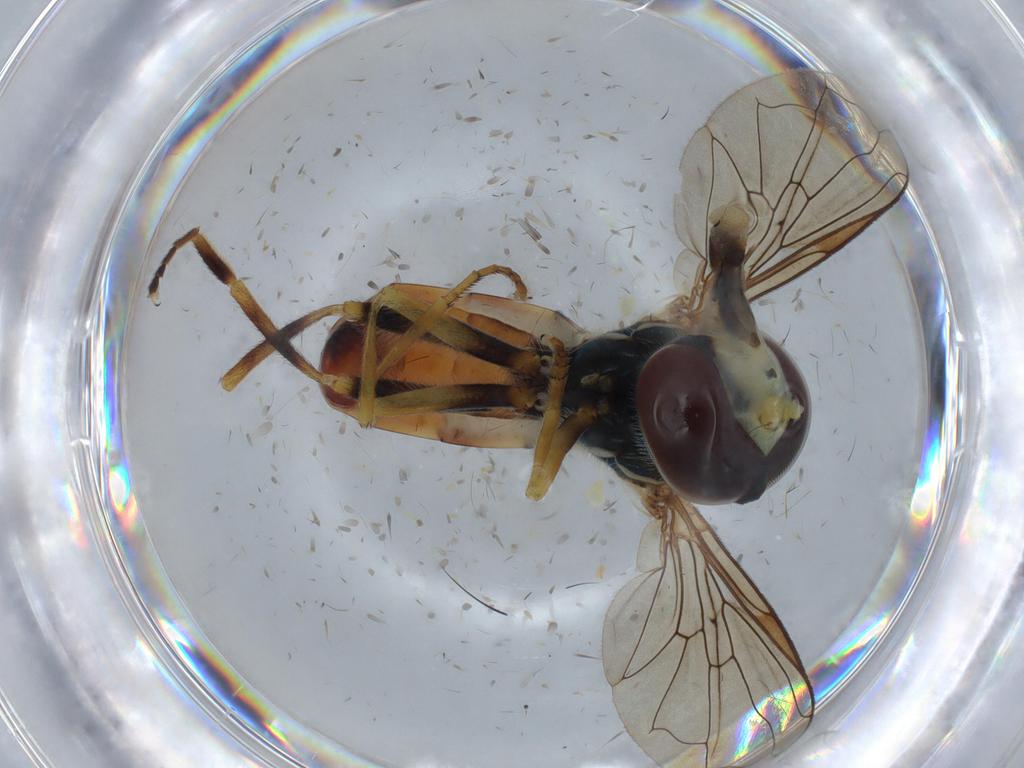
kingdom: Animalia
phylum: Arthropoda
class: Insecta
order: Diptera
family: Syrphidae
